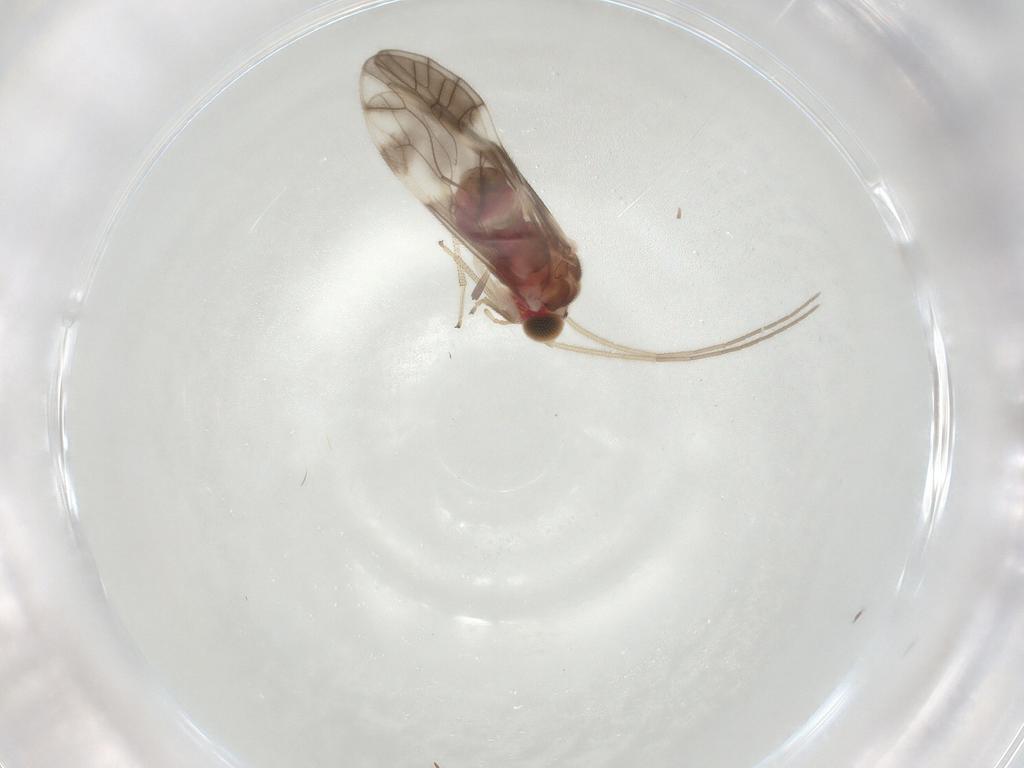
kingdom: Animalia
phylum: Arthropoda
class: Insecta
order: Psocodea
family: Caeciliusidae
